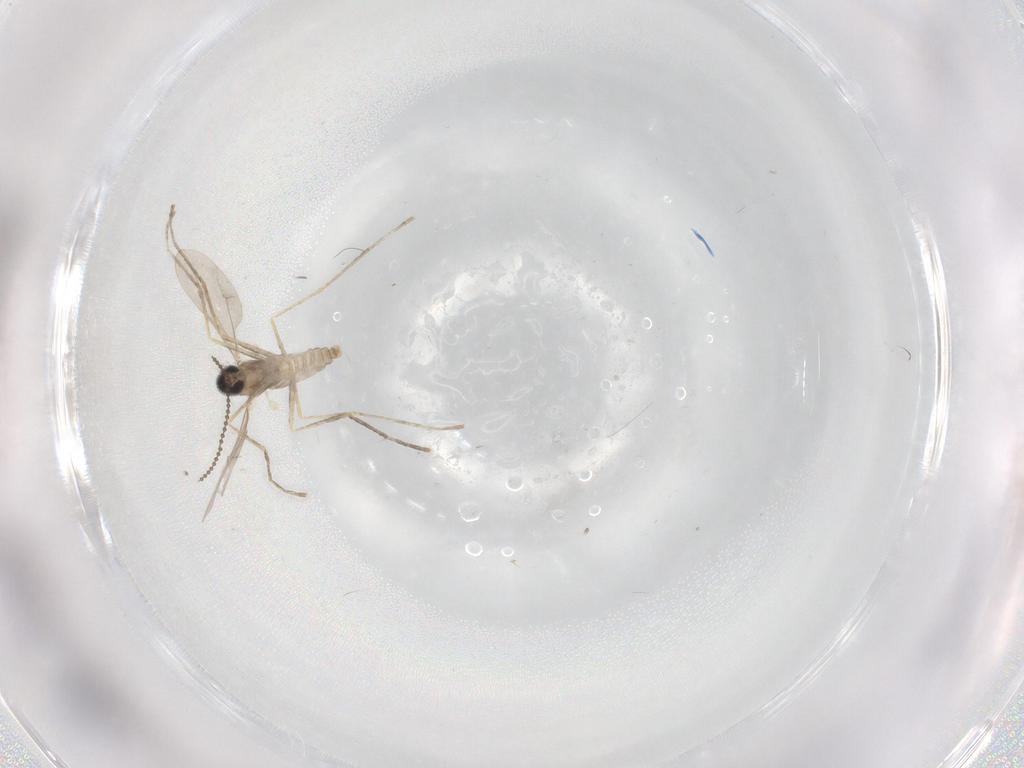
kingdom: Animalia
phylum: Arthropoda
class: Insecta
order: Diptera
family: Cecidomyiidae
